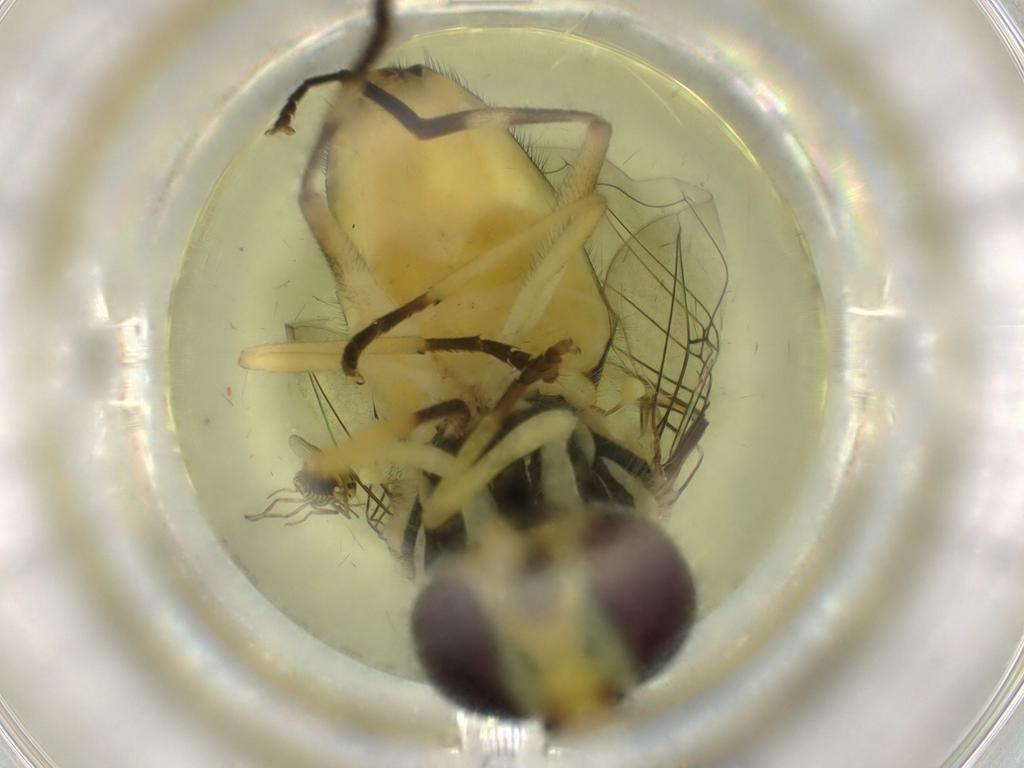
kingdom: Animalia
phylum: Arthropoda
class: Insecta
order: Diptera
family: Syrphidae
